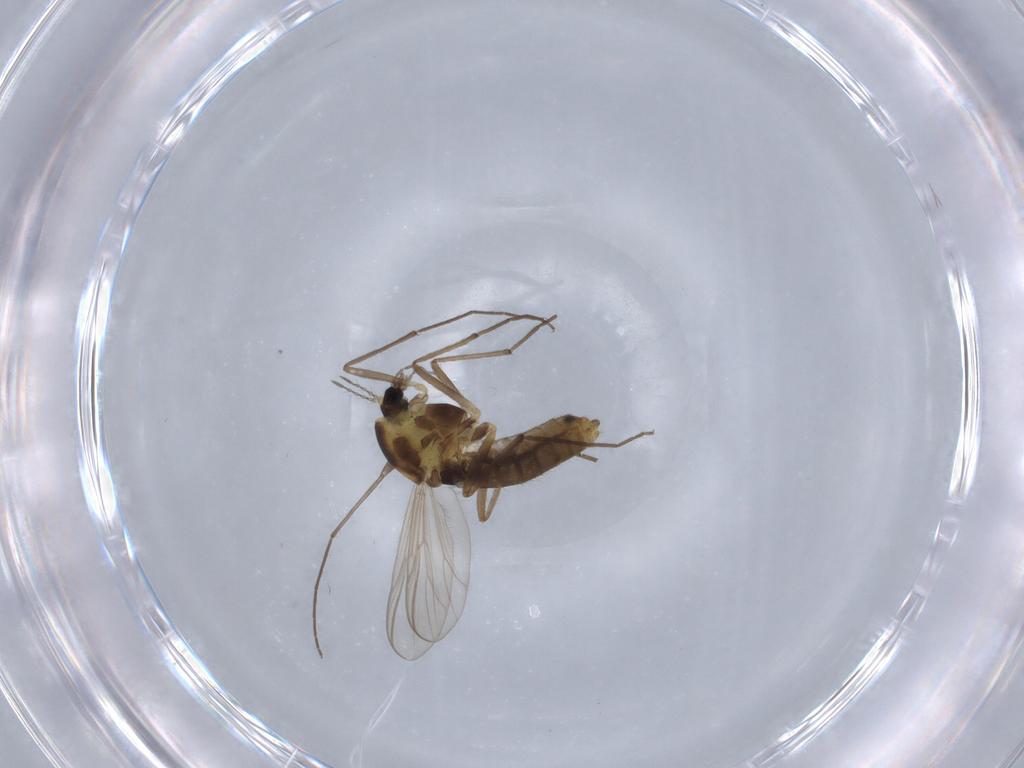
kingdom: Animalia
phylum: Arthropoda
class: Insecta
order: Diptera
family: Chironomidae
